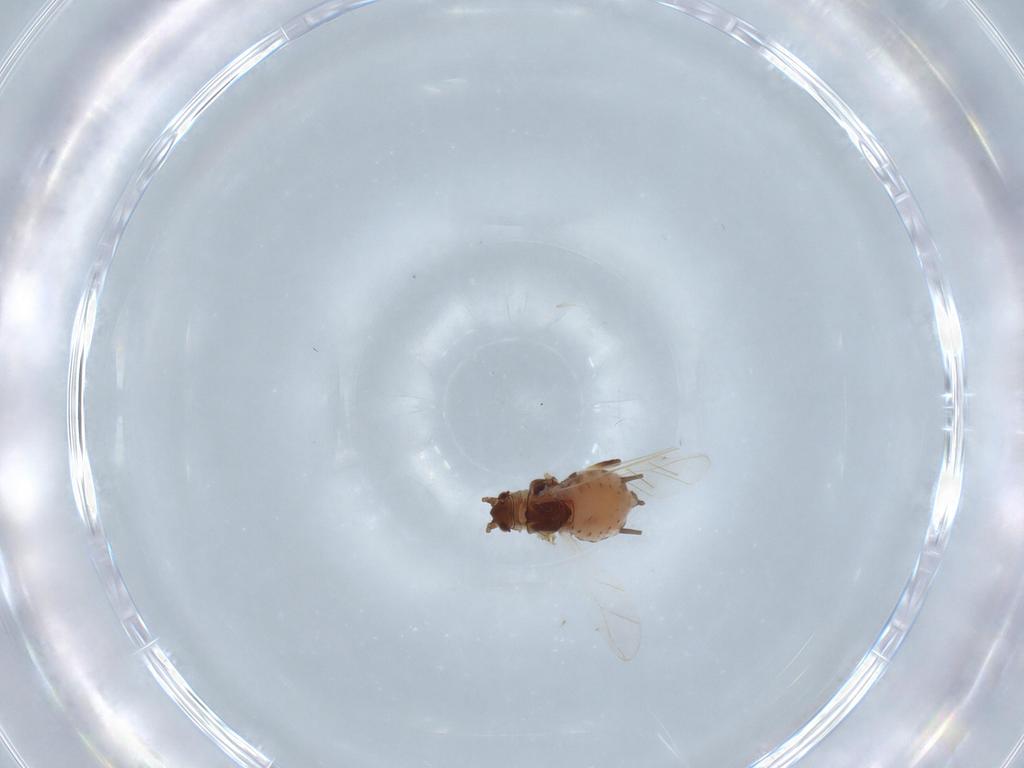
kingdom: Animalia
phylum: Arthropoda
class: Insecta
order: Hemiptera
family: Aphididae
